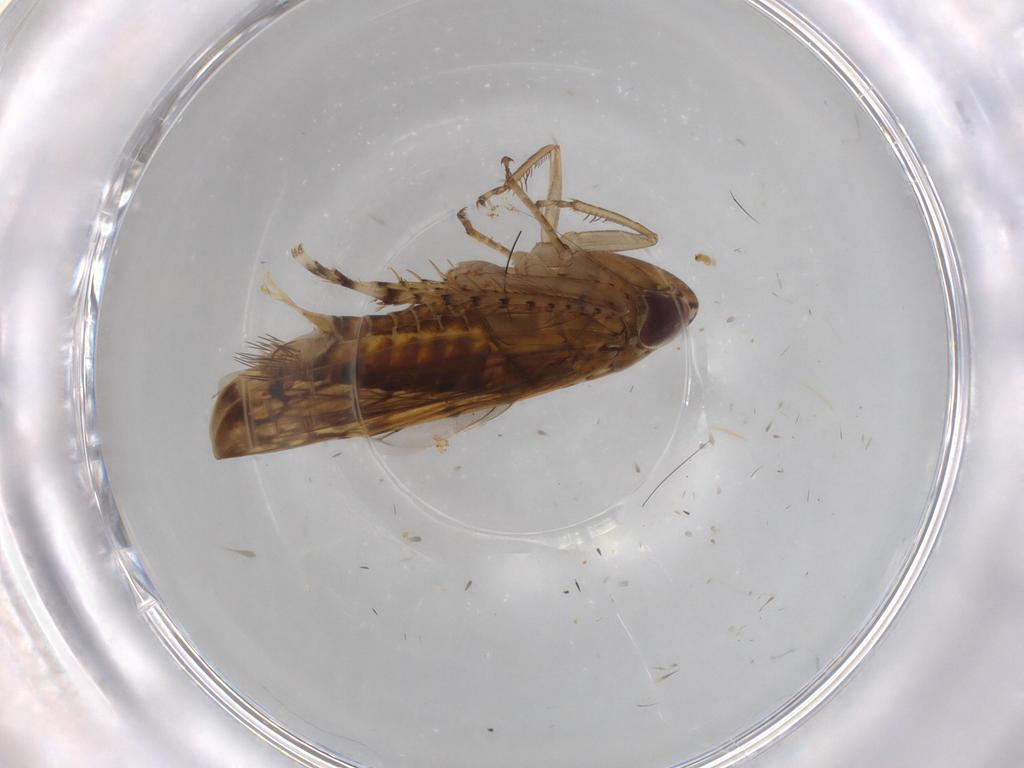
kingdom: Animalia
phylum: Arthropoda
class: Insecta
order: Hemiptera
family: Cicadellidae
